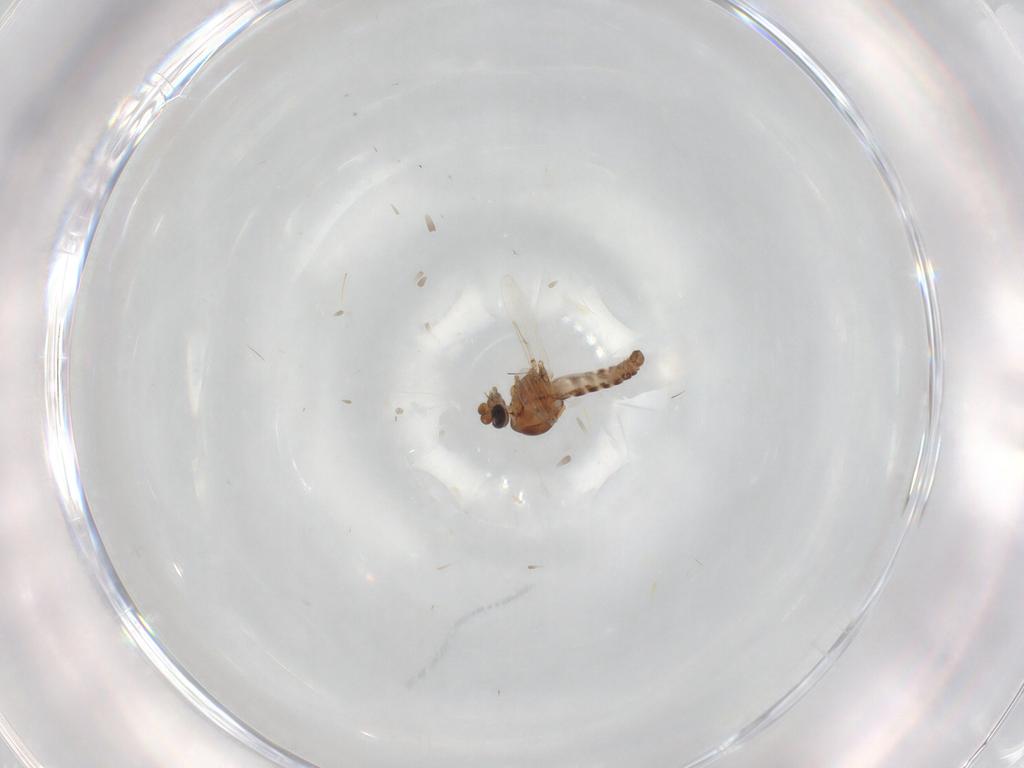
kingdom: Animalia
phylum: Arthropoda
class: Insecta
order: Diptera
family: Ceratopogonidae
